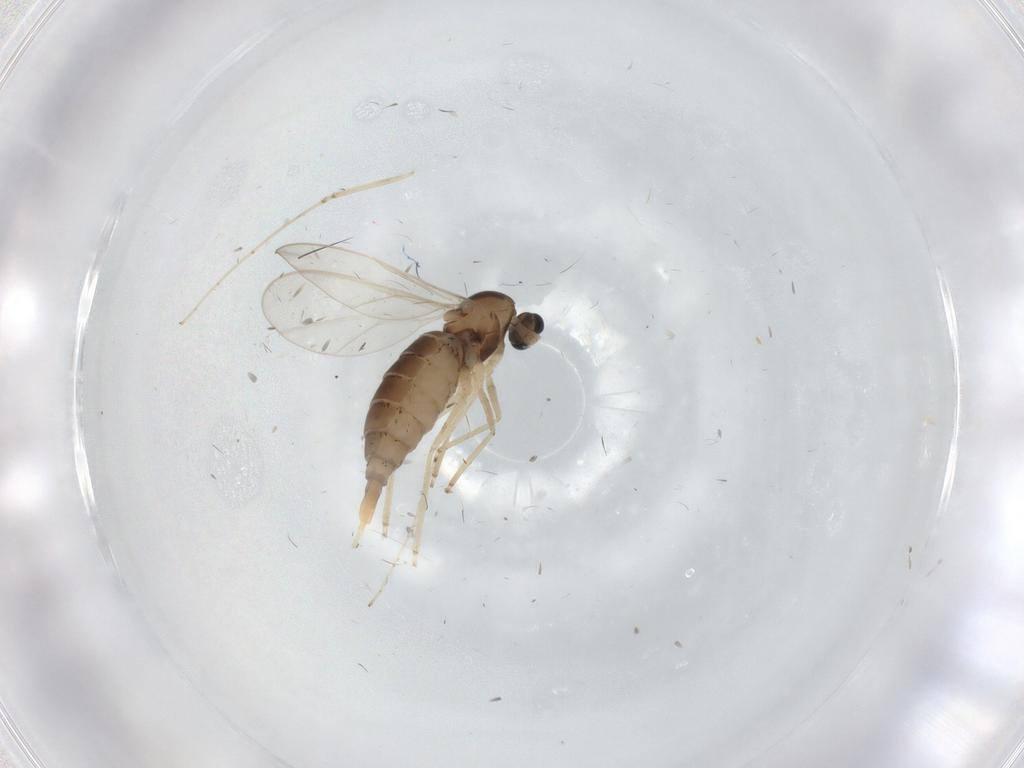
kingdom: Animalia
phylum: Arthropoda
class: Insecta
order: Diptera
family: Cecidomyiidae
